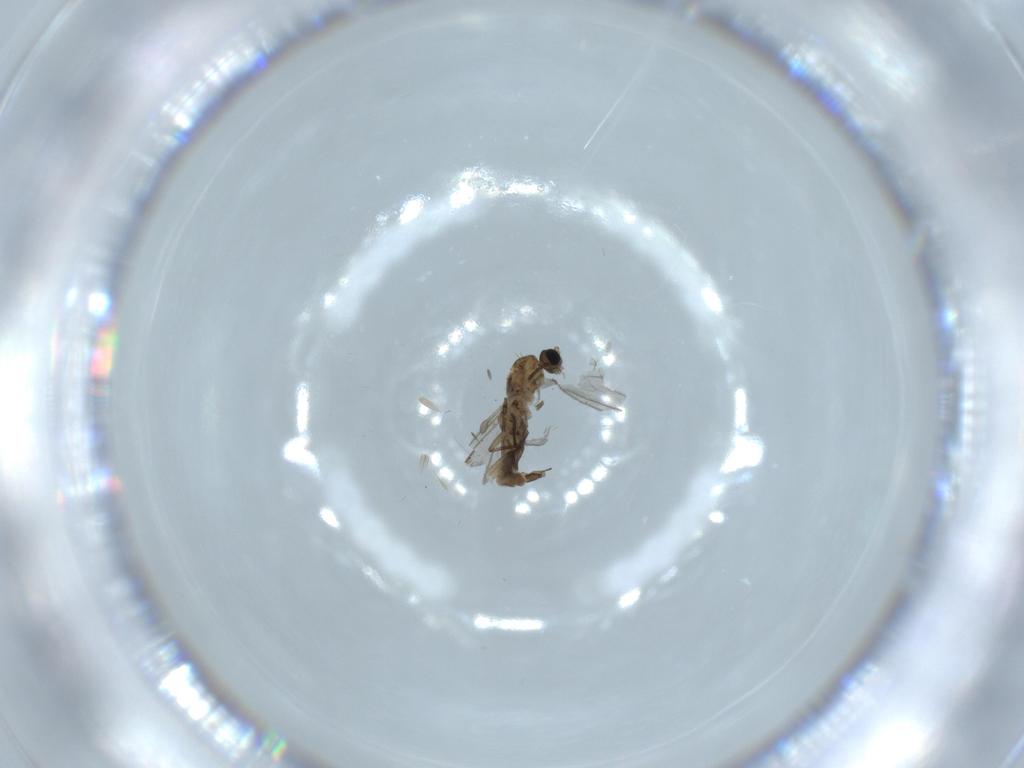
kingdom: Animalia
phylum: Arthropoda
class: Insecta
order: Diptera
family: Sciaridae
